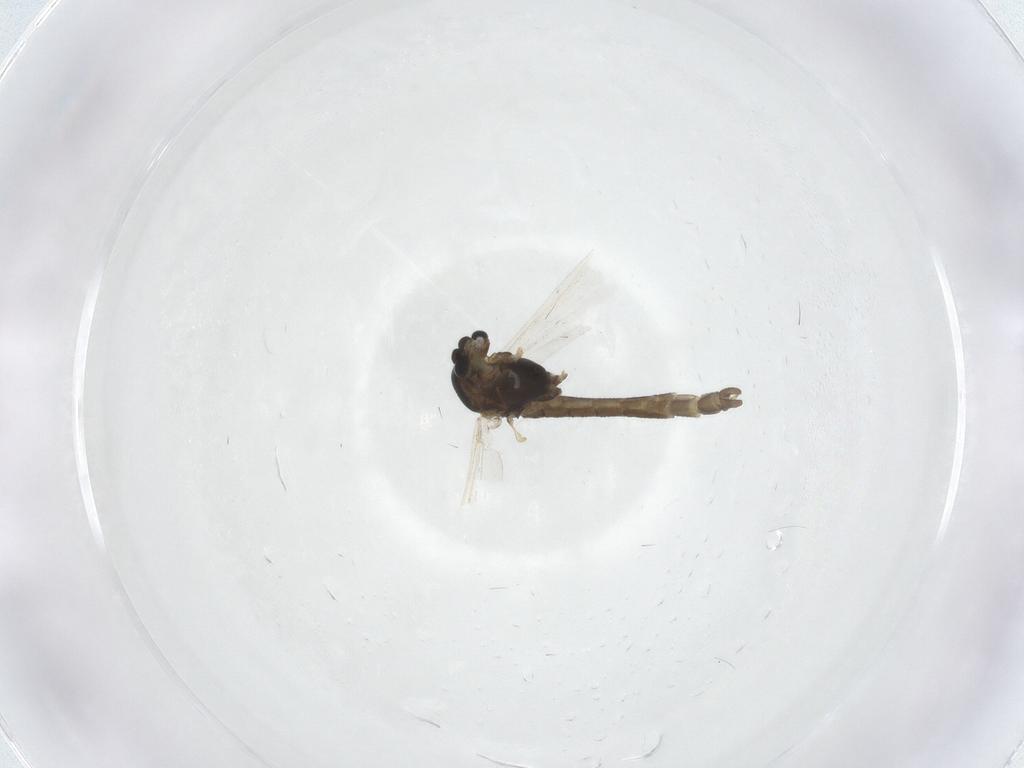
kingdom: Animalia
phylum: Arthropoda
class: Insecta
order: Diptera
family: Chironomidae
